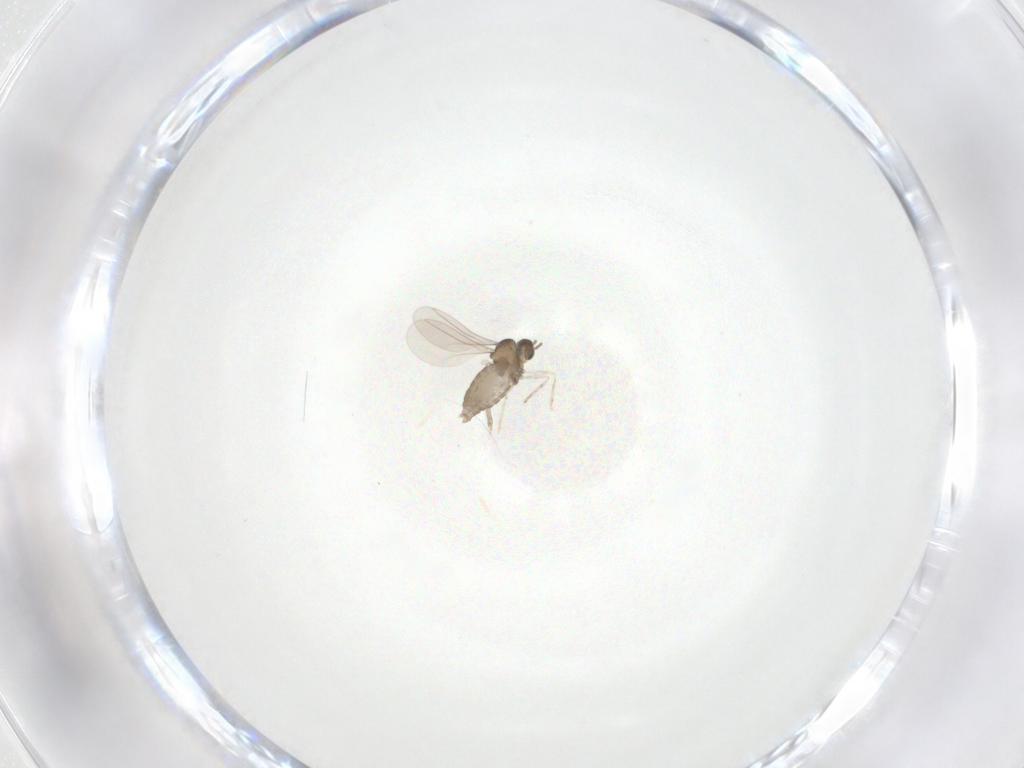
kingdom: Animalia
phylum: Arthropoda
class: Insecta
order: Diptera
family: Cecidomyiidae
